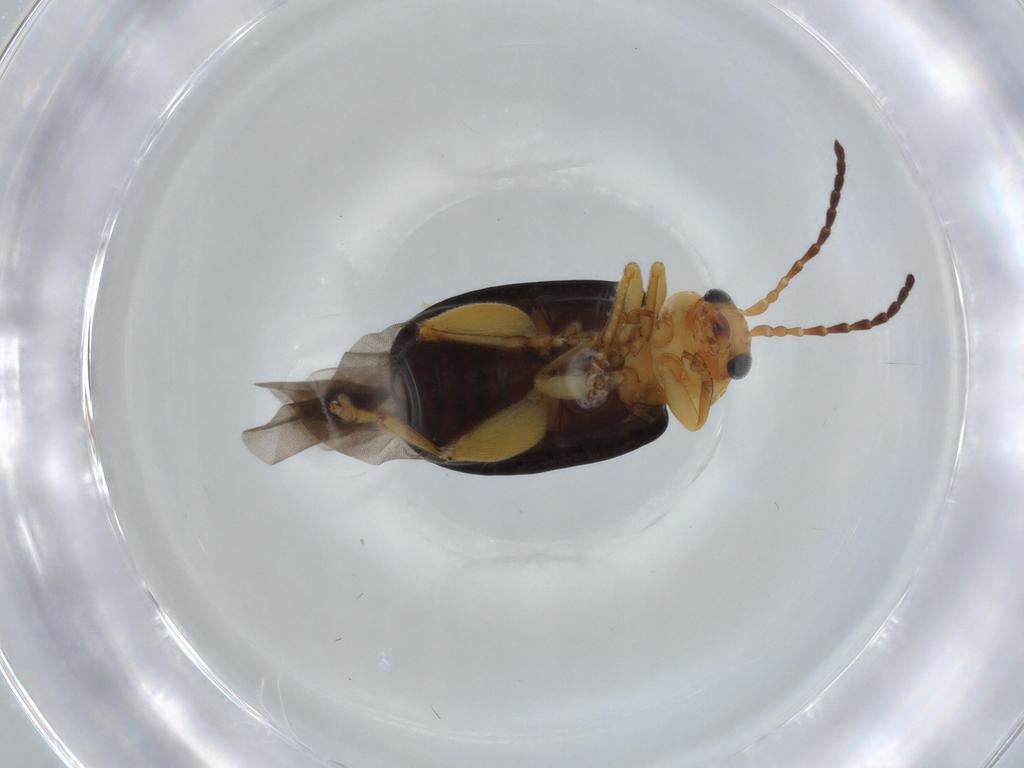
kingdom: Animalia
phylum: Arthropoda
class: Insecta
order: Coleoptera
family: Chrysomelidae
